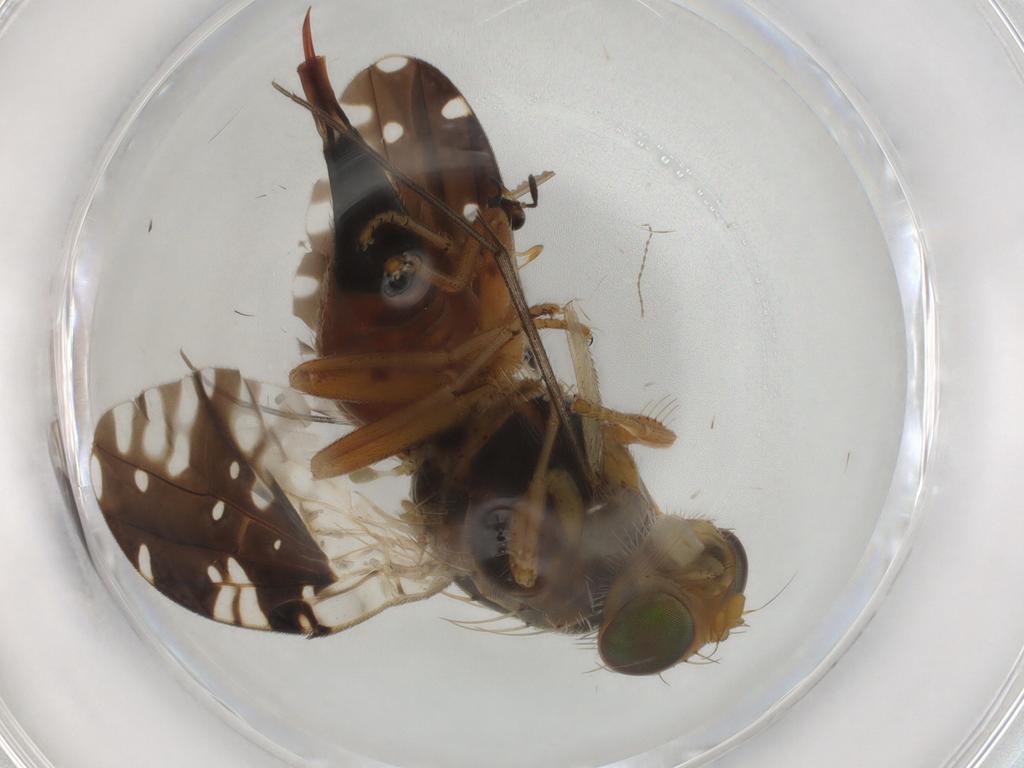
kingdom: Animalia
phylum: Arthropoda
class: Insecta
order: Diptera
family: Tephritidae
